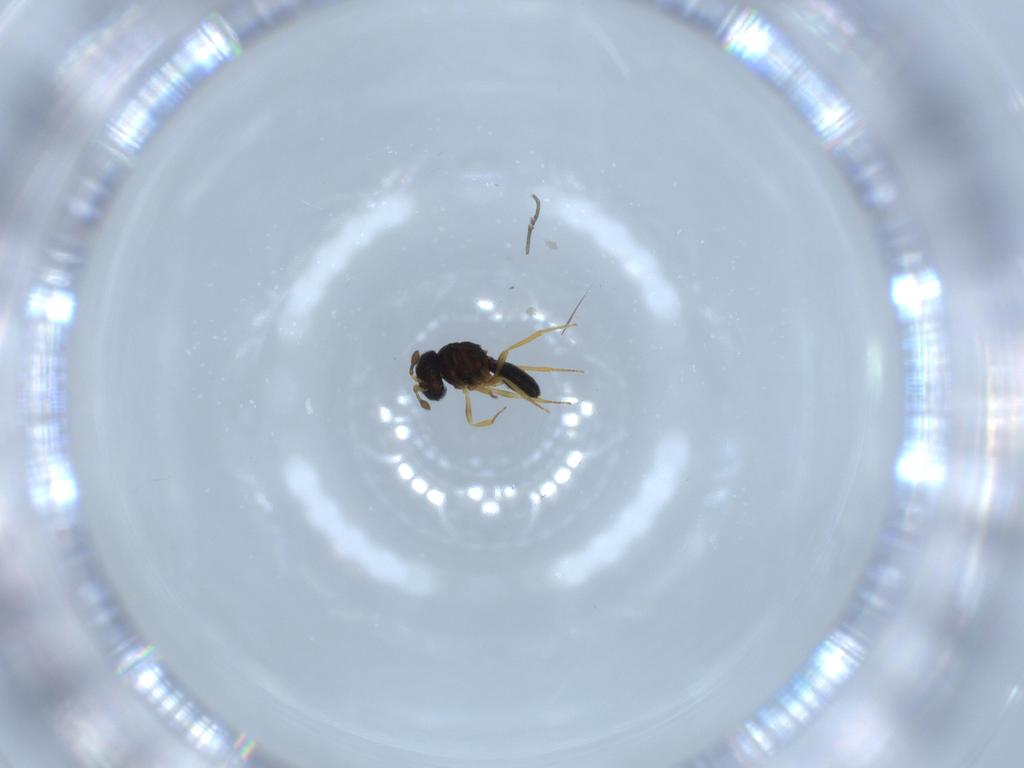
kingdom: Animalia
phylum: Arthropoda
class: Insecta
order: Hymenoptera
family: Scelionidae
